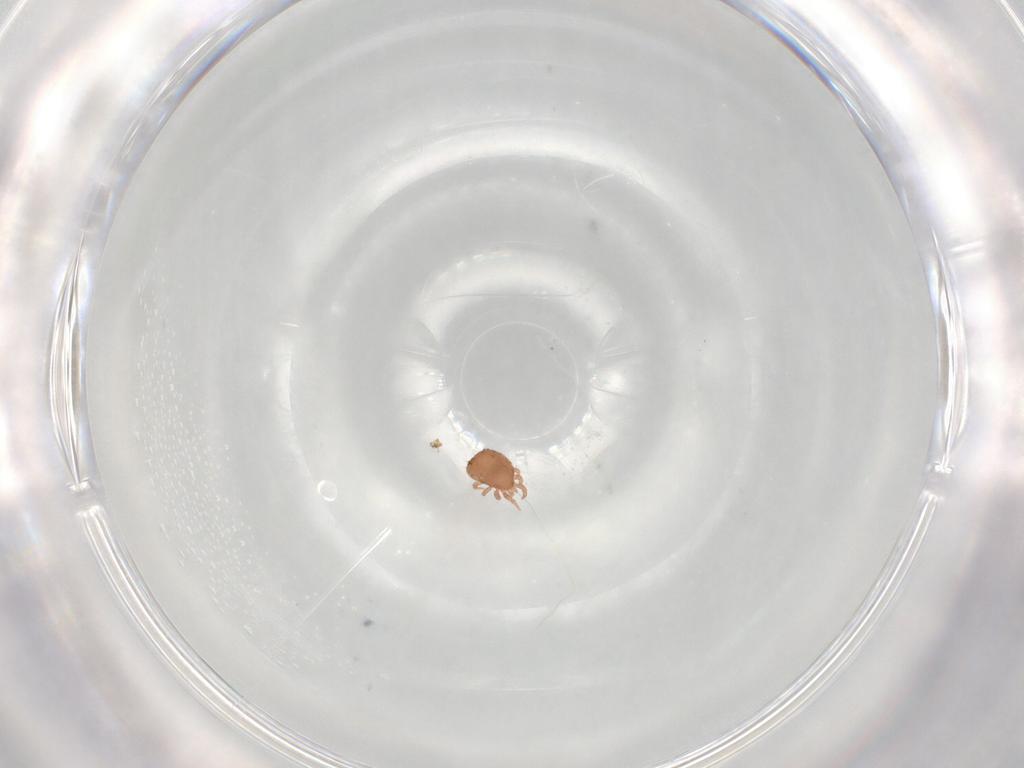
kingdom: Animalia
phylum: Arthropoda
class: Arachnida
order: Mesostigmata
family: Zerconidae
